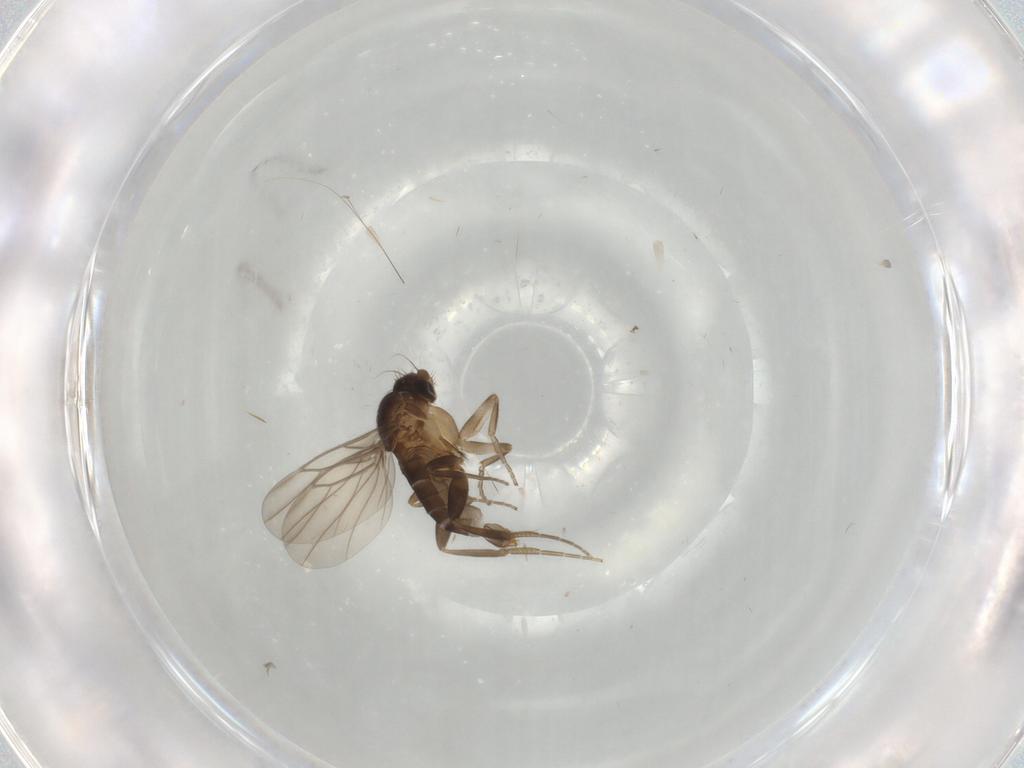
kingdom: Animalia
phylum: Arthropoda
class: Insecta
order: Diptera
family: Phoridae
